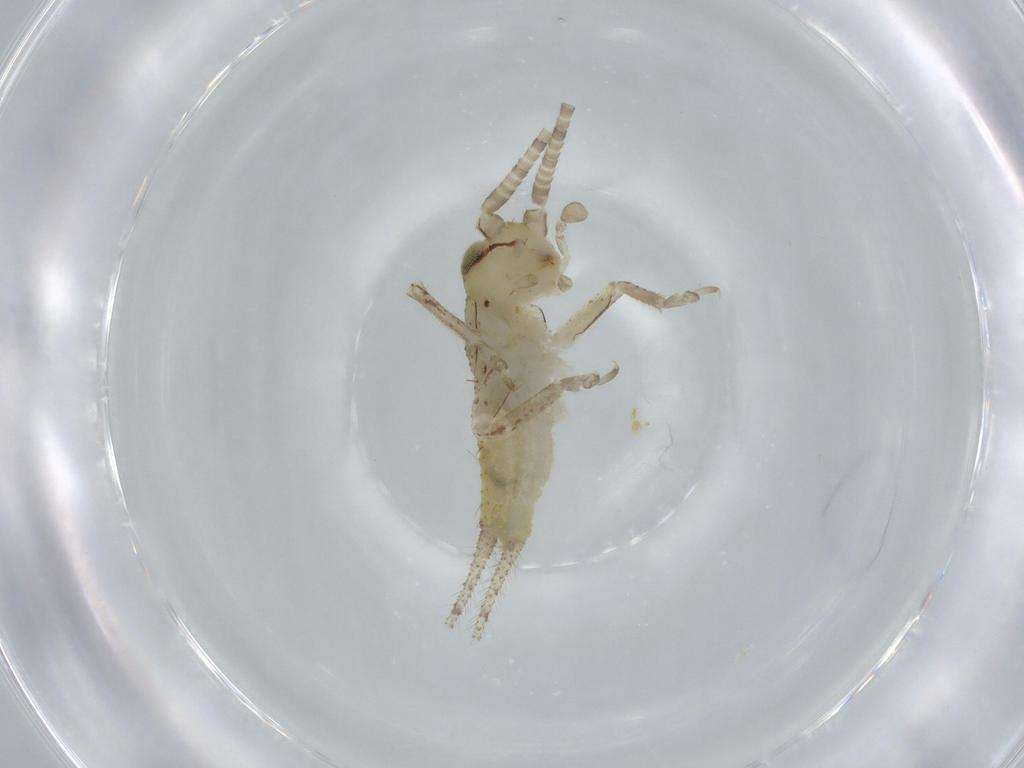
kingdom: Animalia
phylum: Arthropoda
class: Insecta
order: Orthoptera
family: Gryllidae
